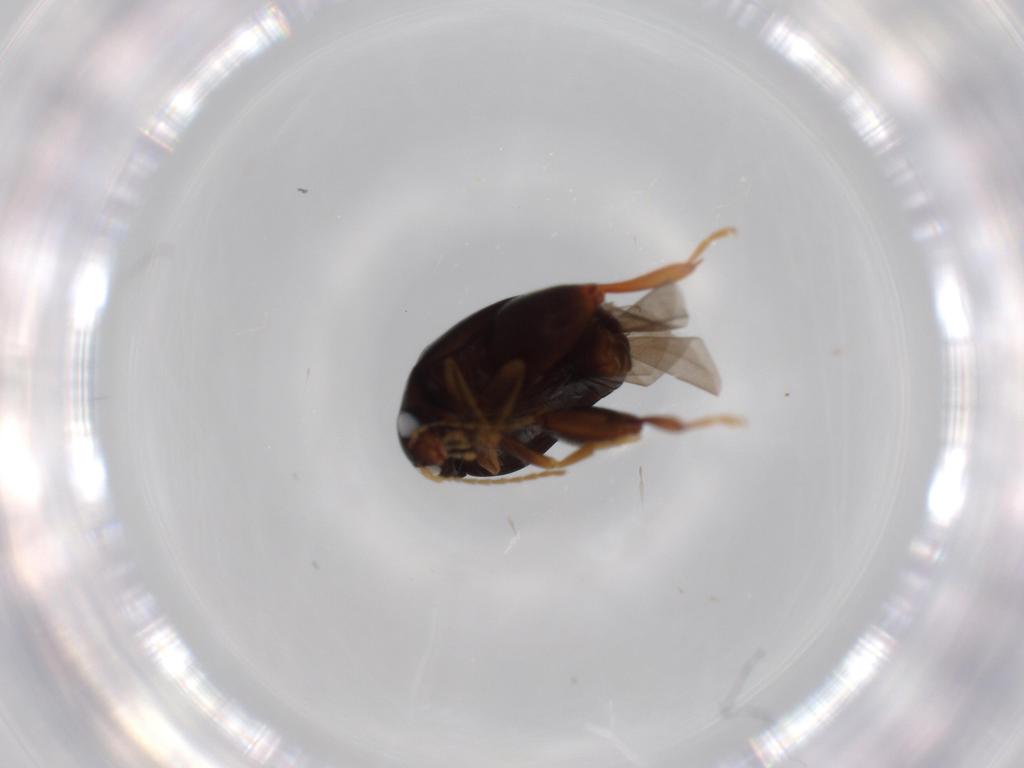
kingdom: Animalia
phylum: Arthropoda
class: Insecta
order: Coleoptera
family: Chrysomelidae
